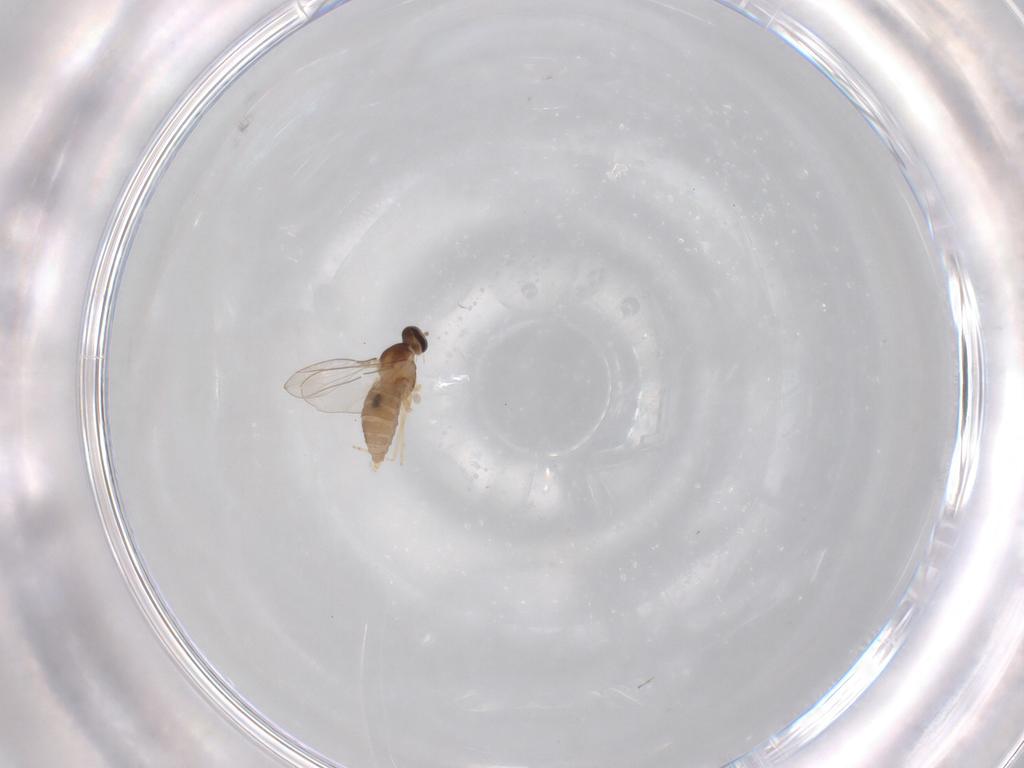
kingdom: Animalia
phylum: Arthropoda
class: Insecta
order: Diptera
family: Cecidomyiidae
